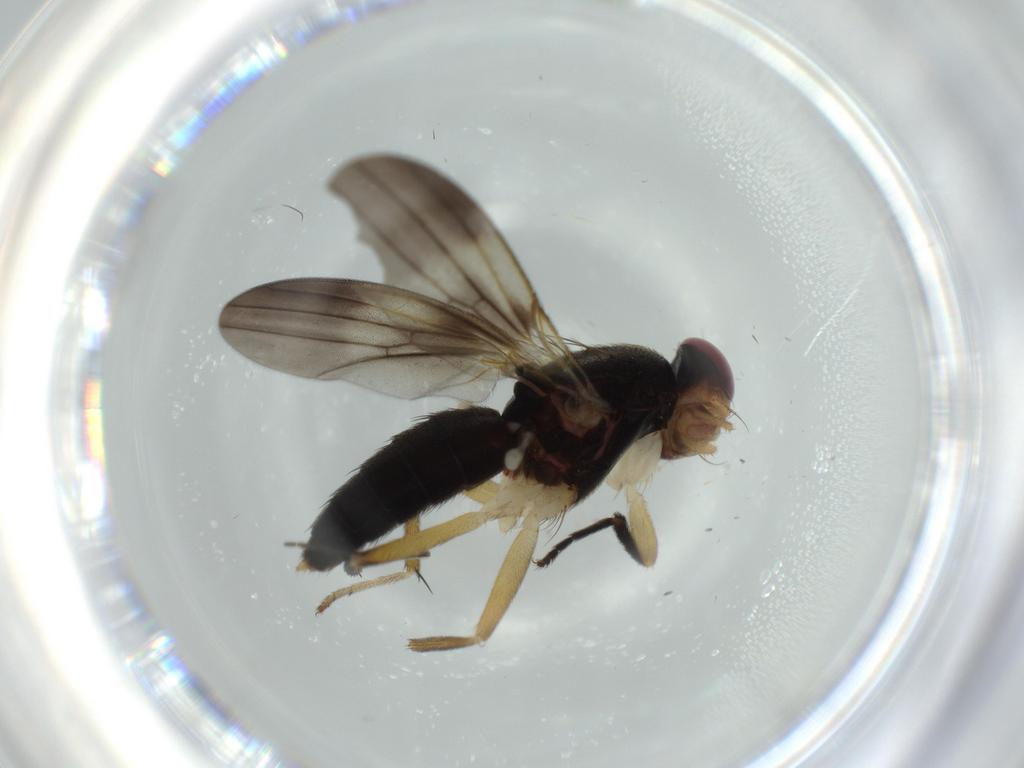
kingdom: Animalia
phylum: Arthropoda
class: Insecta
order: Diptera
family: Clusiidae
